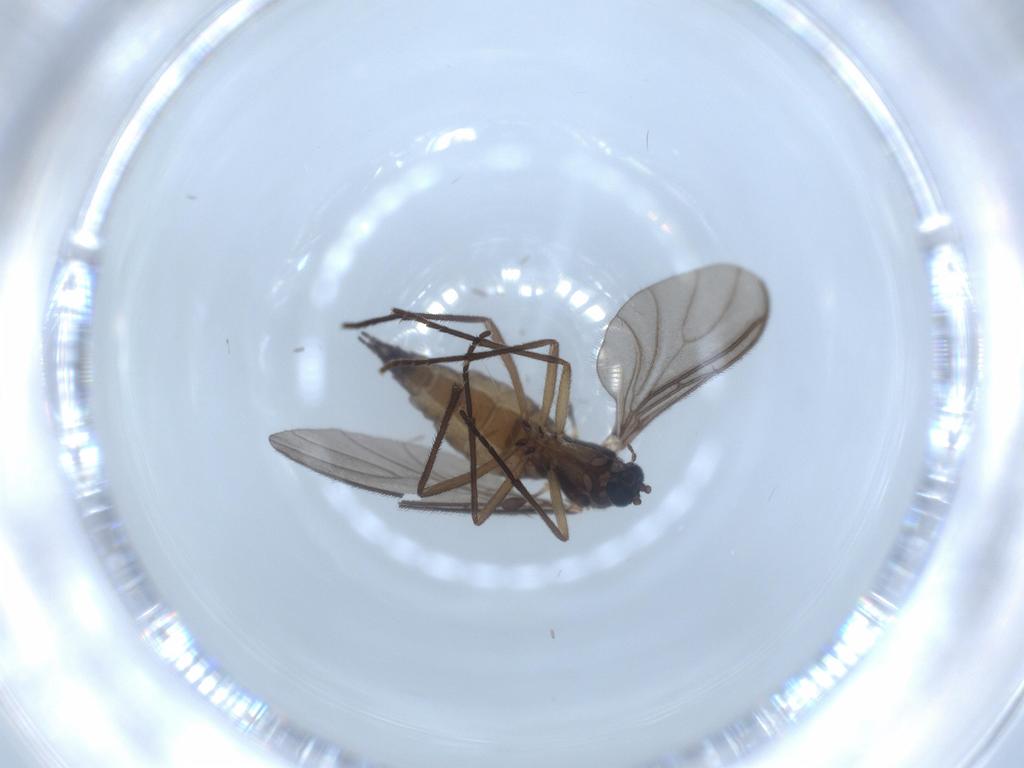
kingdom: Animalia
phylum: Arthropoda
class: Insecta
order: Diptera
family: Sciaridae
